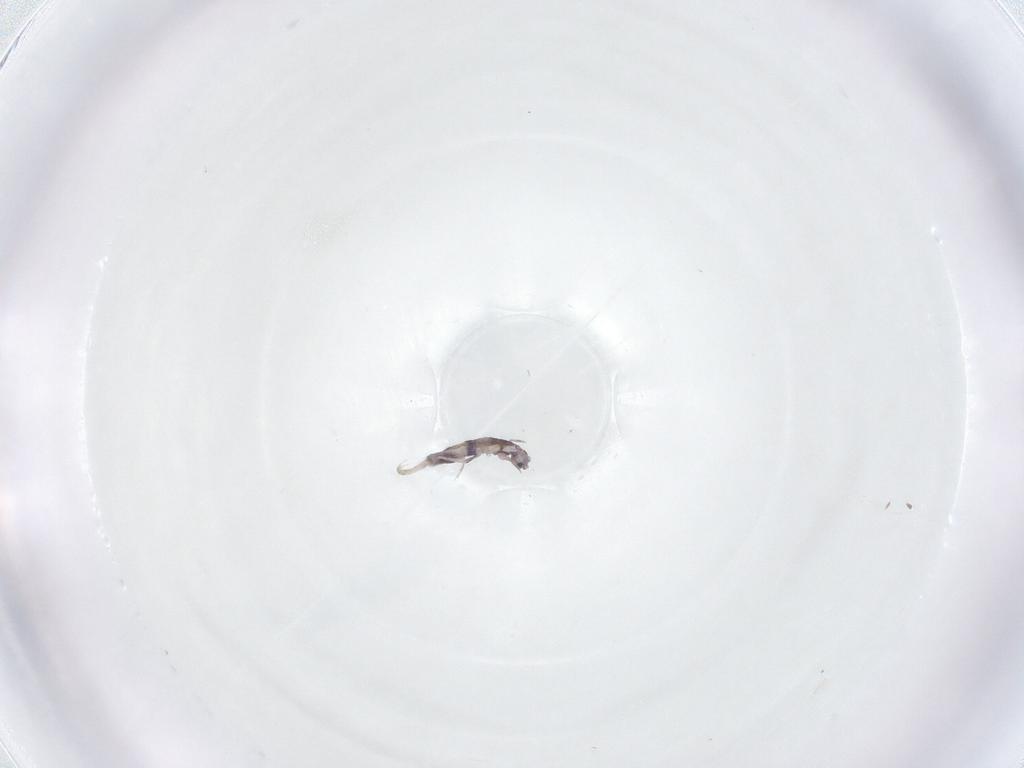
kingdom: Animalia
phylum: Arthropoda
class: Collembola
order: Entomobryomorpha
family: Entomobryidae
